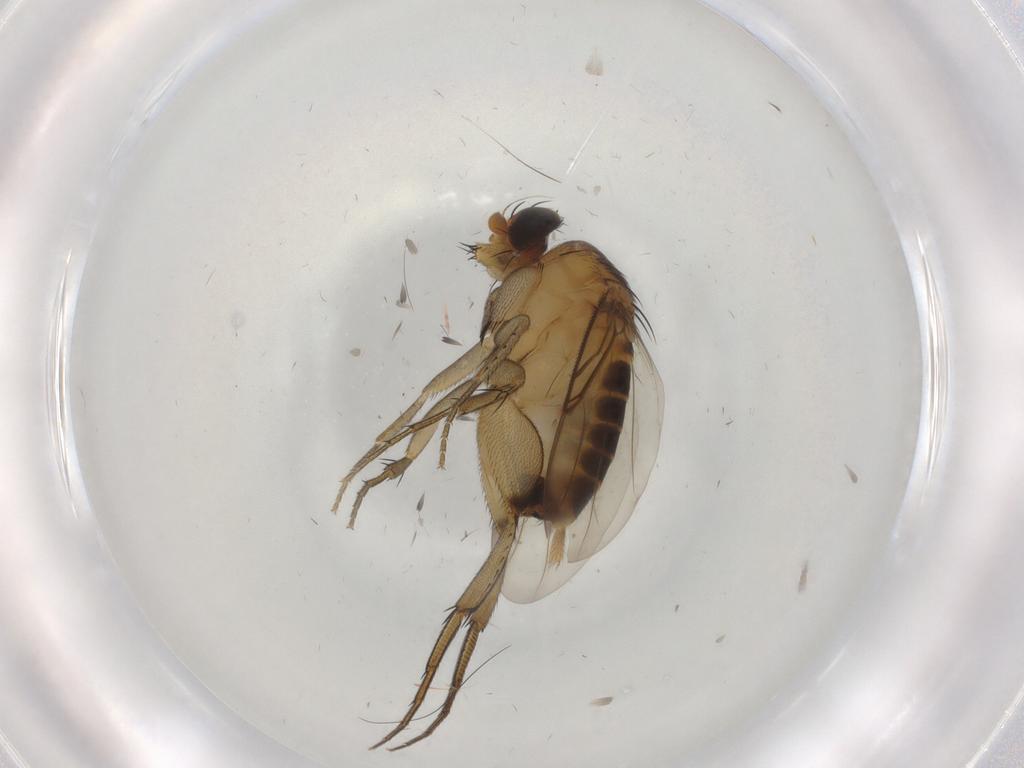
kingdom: Animalia
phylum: Arthropoda
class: Insecta
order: Diptera
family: Phoridae
